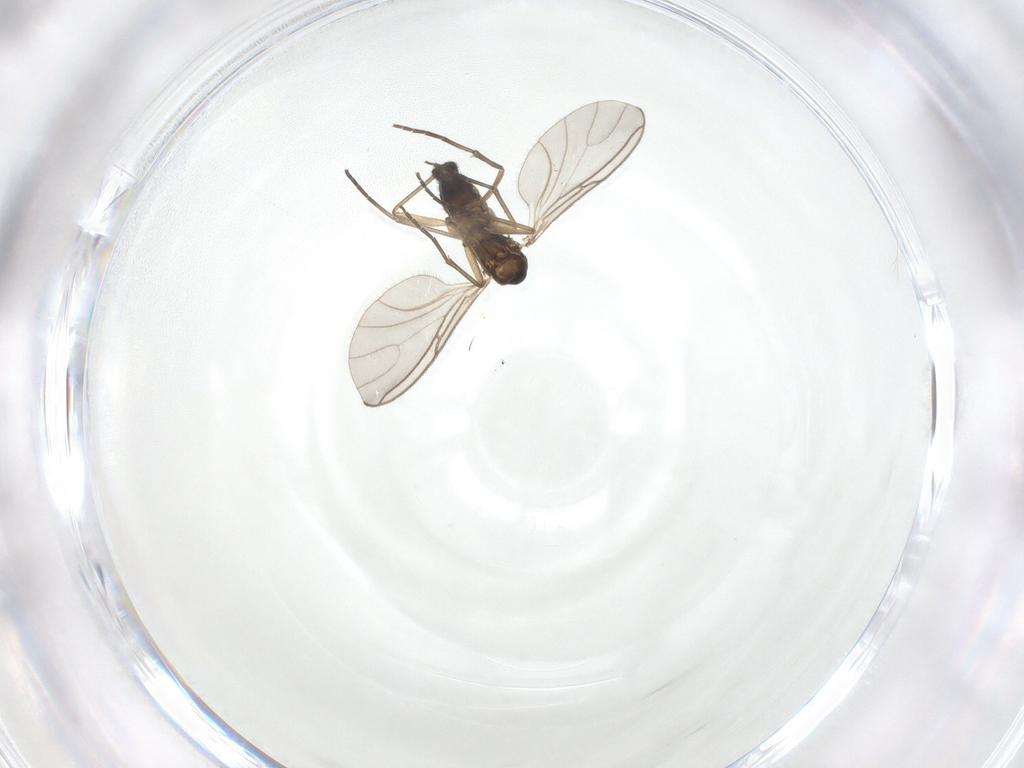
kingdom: Animalia
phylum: Arthropoda
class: Insecta
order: Diptera
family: Sciaridae
